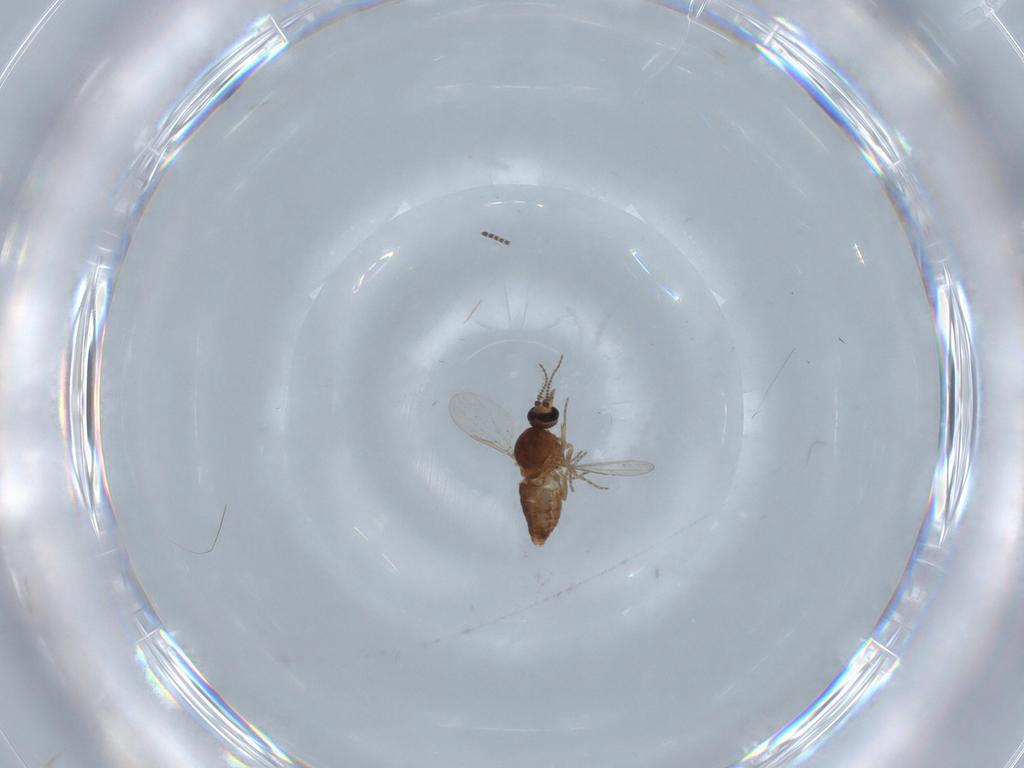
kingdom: Animalia
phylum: Arthropoda
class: Insecta
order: Diptera
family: Ceratopogonidae
